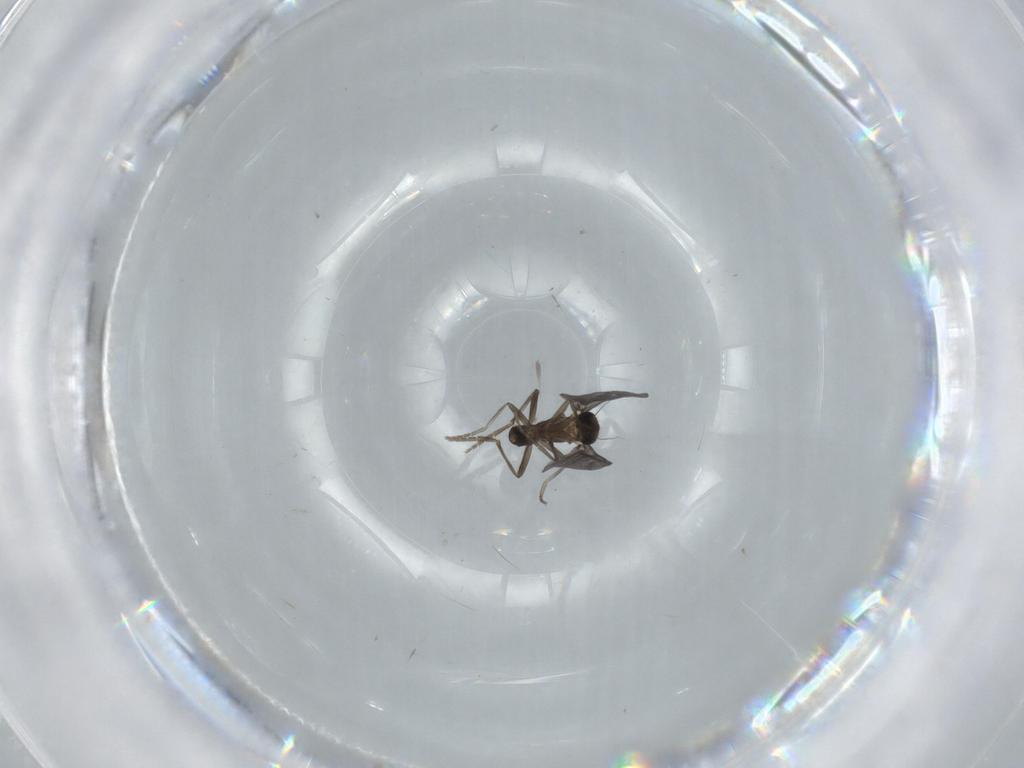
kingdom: Animalia
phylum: Arthropoda
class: Insecta
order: Diptera
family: Phoridae
